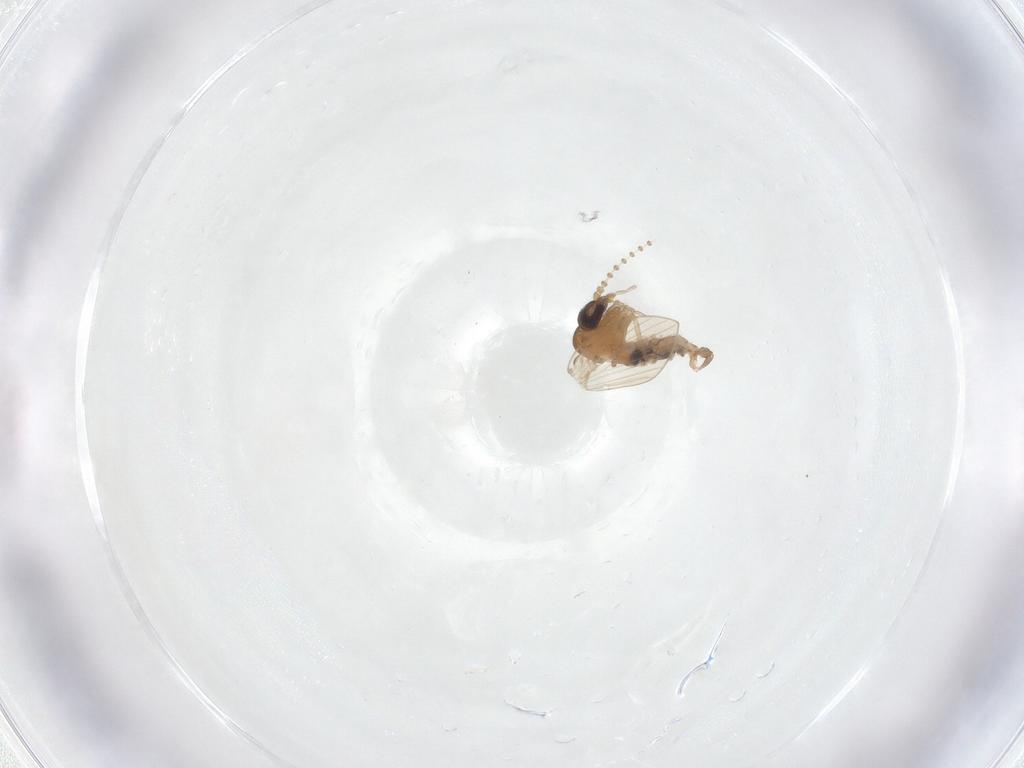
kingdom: Animalia
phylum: Arthropoda
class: Insecta
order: Diptera
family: Psychodidae
